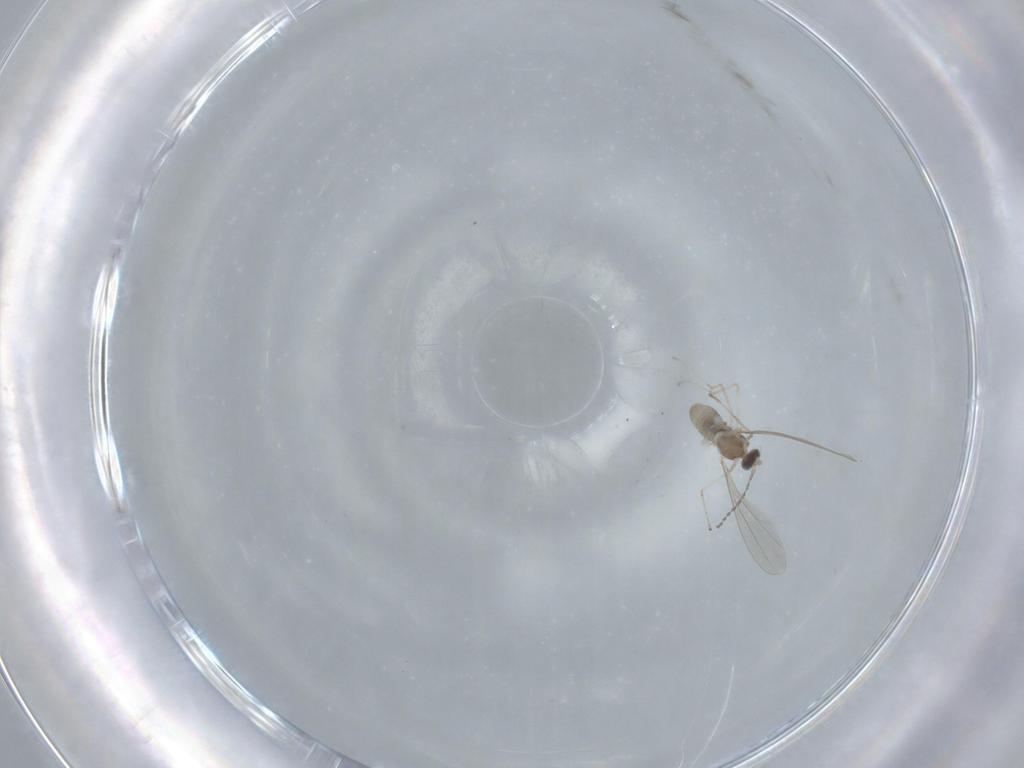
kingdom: Animalia
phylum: Arthropoda
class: Insecta
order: Diptera
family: Cecidomyiidae
